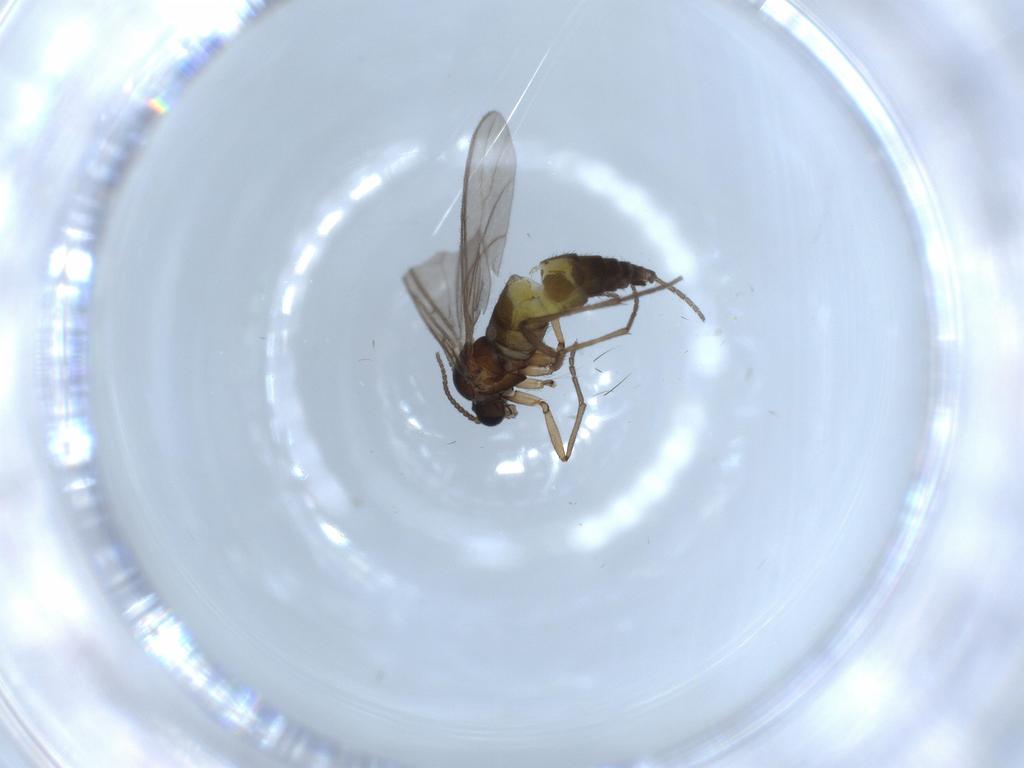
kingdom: Animalia
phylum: Arthropoda
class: Insecta
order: Diptera
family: Sciaridae
